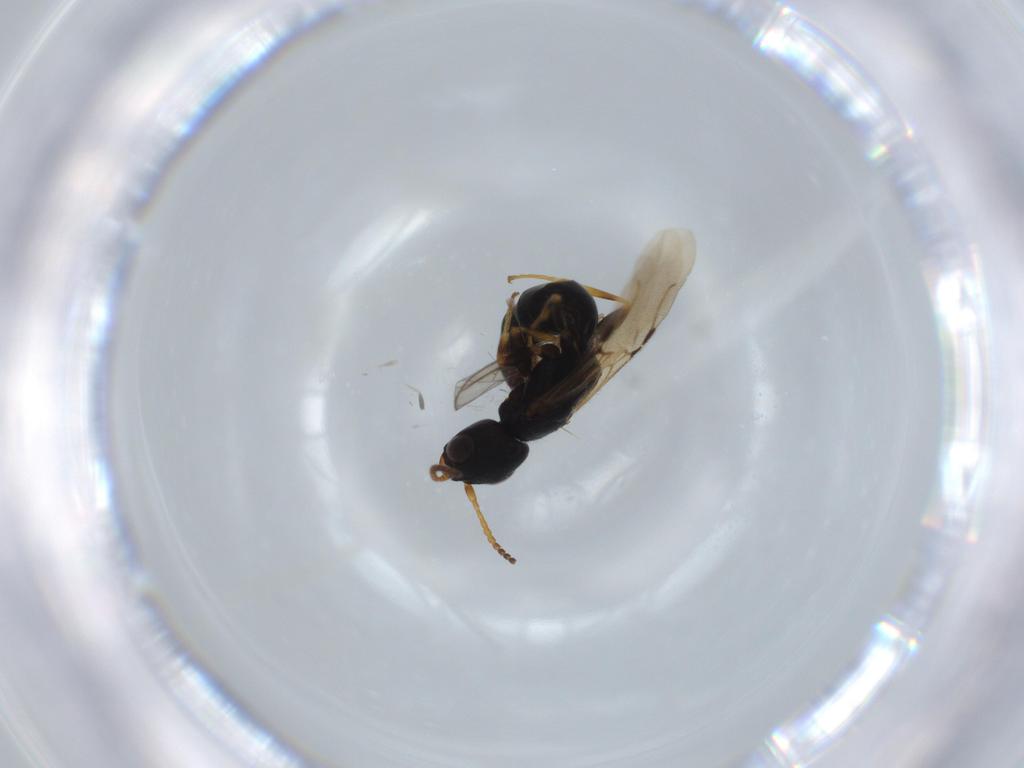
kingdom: Animalia
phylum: Arthropoda
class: Insecta
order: Hymenoptera
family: Bethylidae
